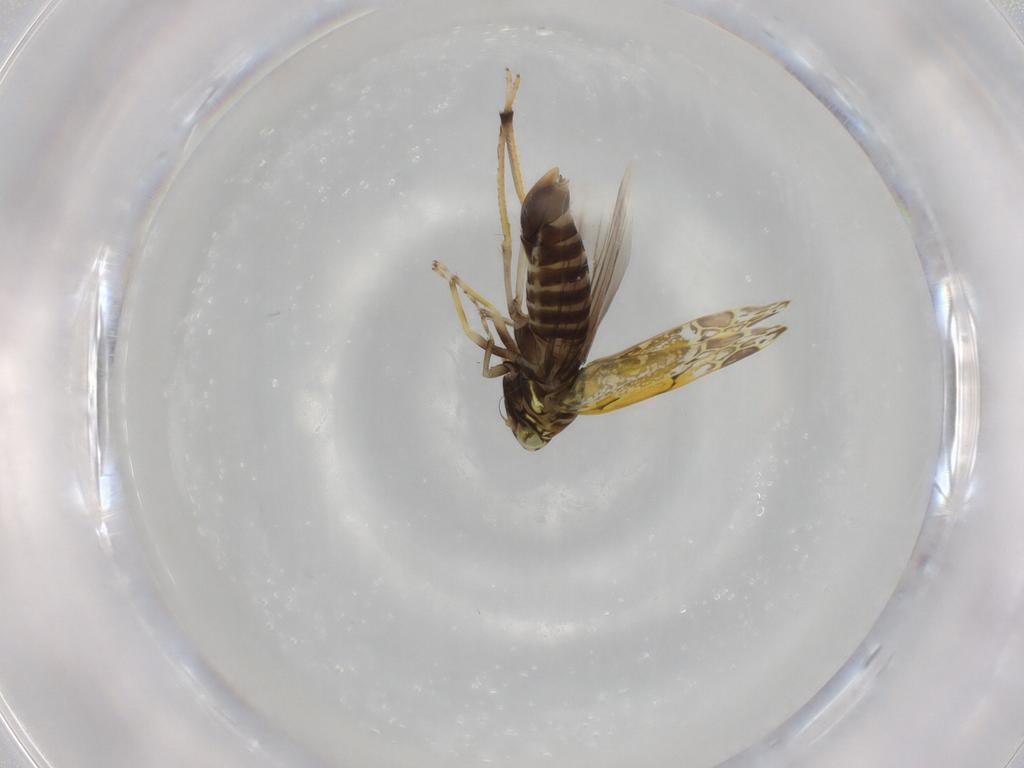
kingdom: Animalia
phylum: Arthropoda
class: Insecta
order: Hemiptera
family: Cicadellidae
